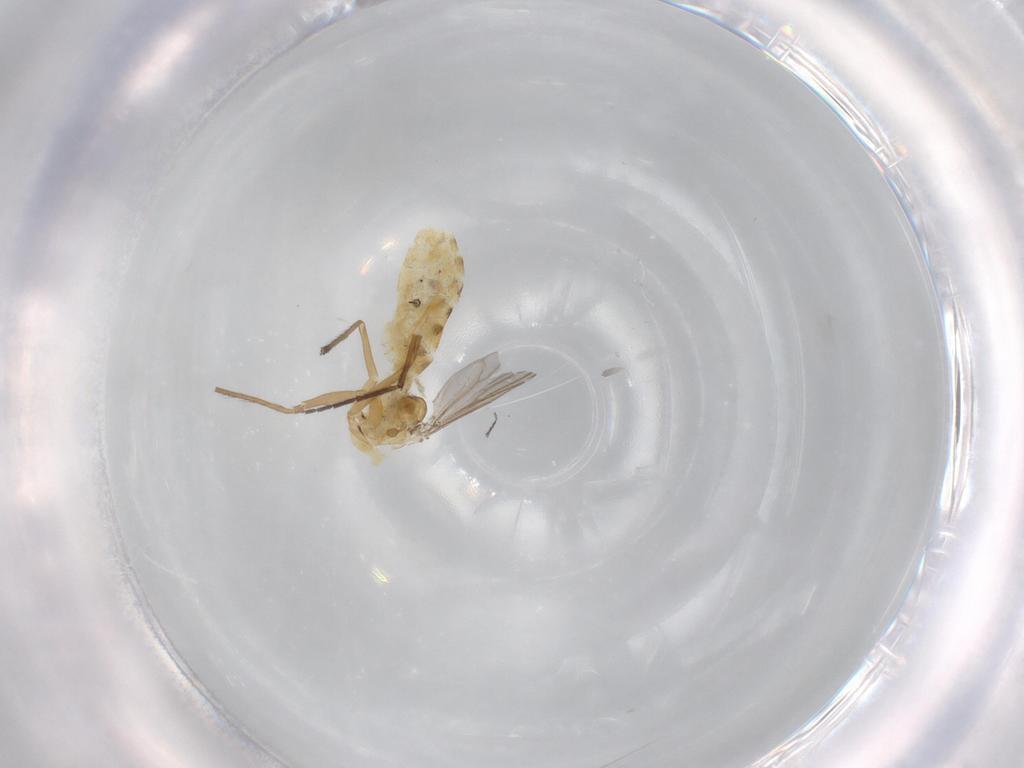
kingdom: Animalia
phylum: Arthropoda
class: Insecta
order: Diptera
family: Chironomidae
